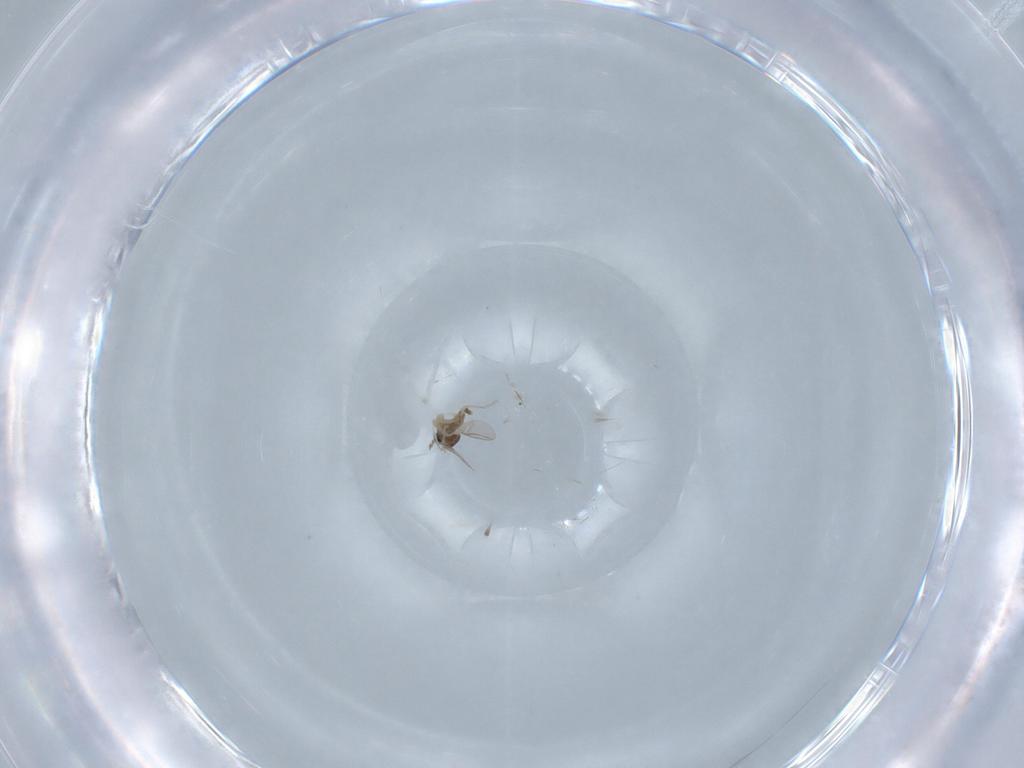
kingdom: Animalia
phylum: Arthropoda
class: Insecta
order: Diptera
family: Cecidomyiidae
